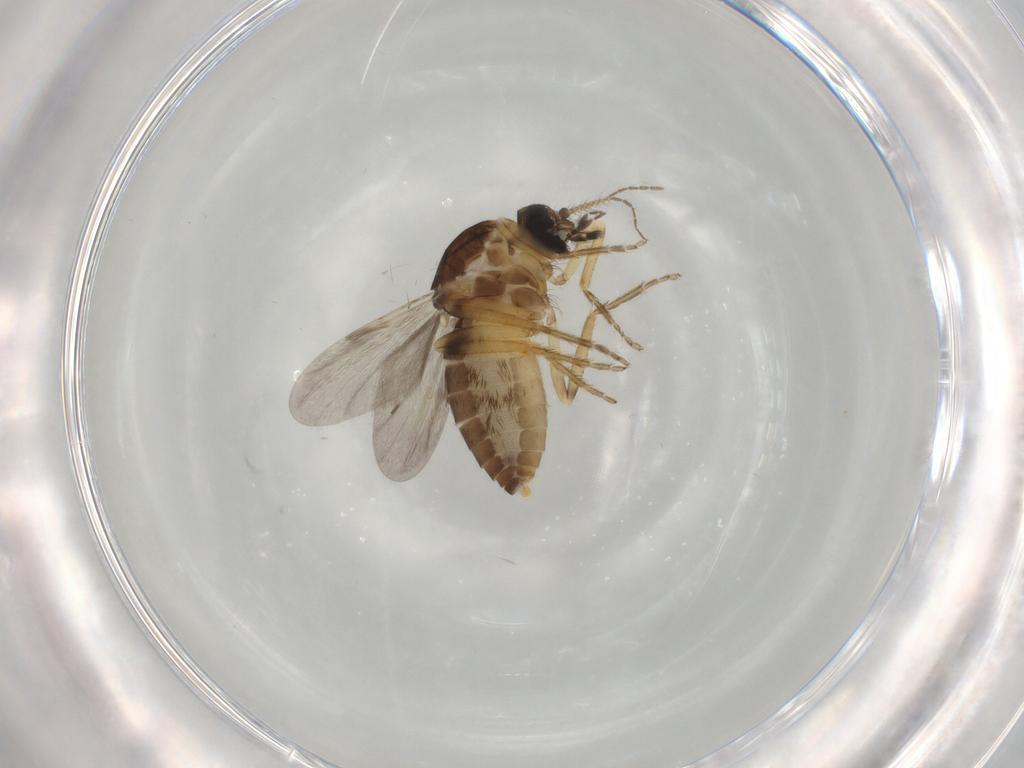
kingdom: Animalia
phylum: Arthropoda
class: Insecta
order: Diptera
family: Ceratopogonidae
